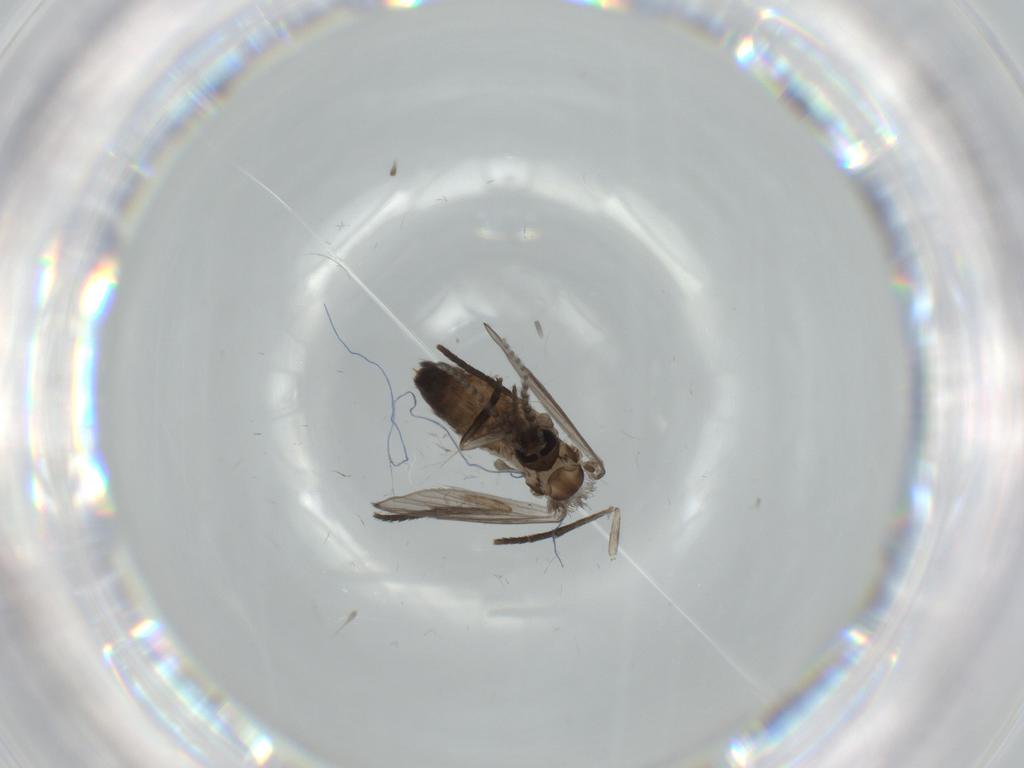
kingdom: Animalia
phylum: Arthropoda
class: Insecta
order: Diptera
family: Psychodidae
